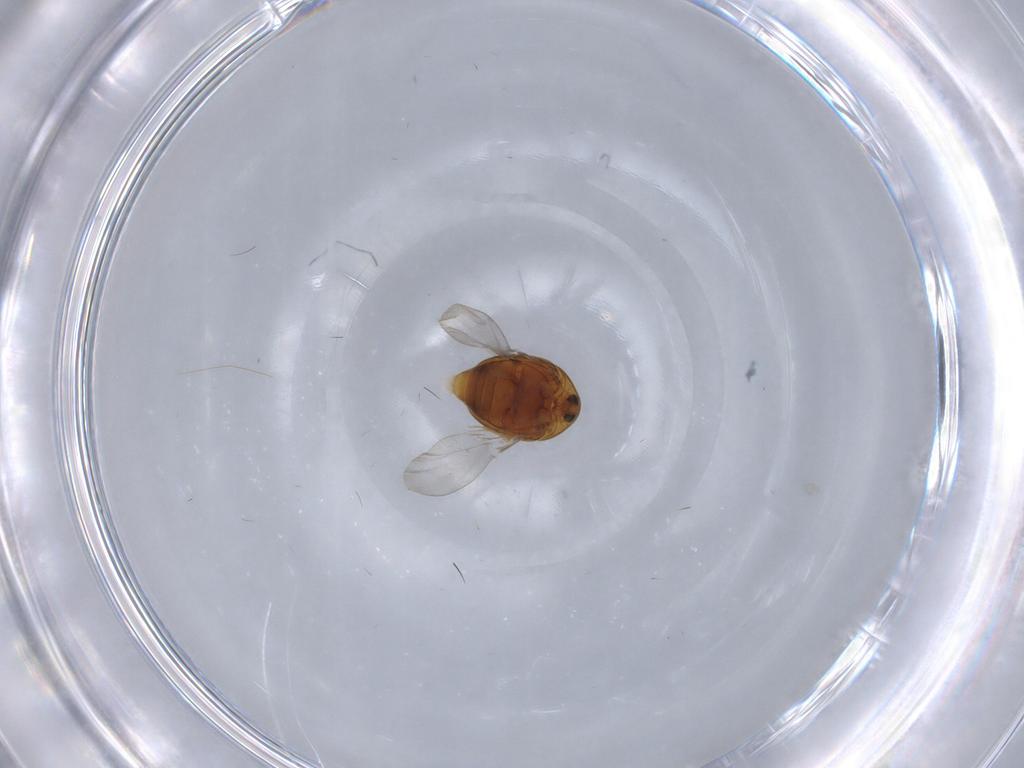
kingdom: Animalia
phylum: Arthropoda
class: Insecta
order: Coleoptera
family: Corylophidae
